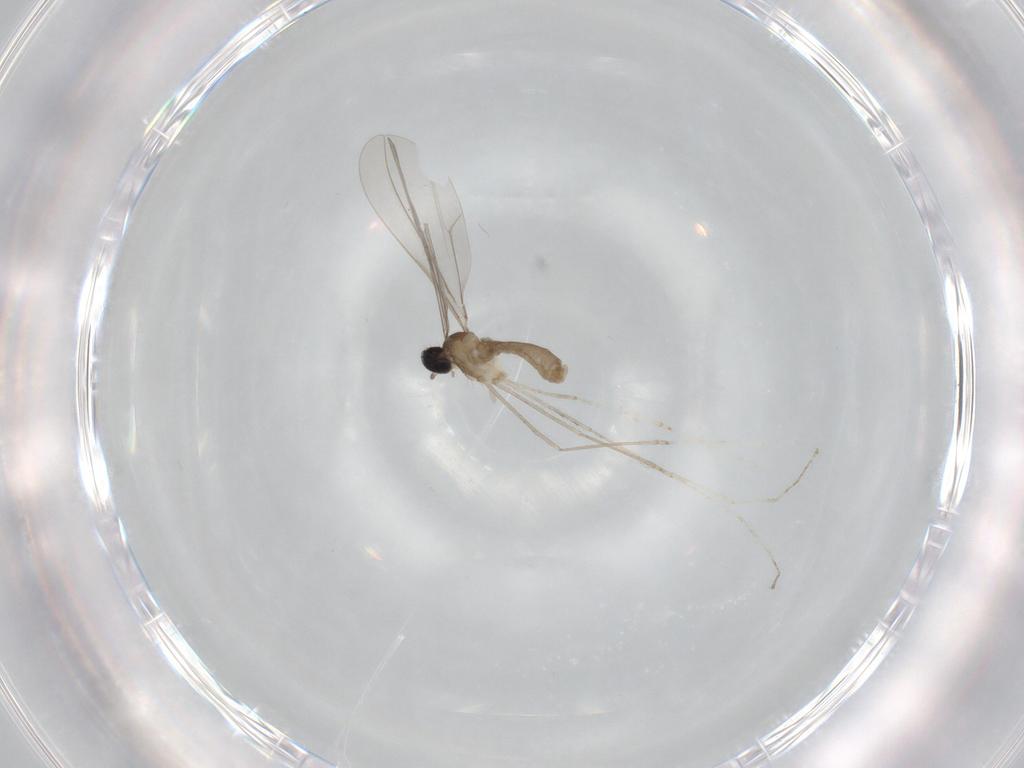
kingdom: Animalia
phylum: Arthropoda
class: Insecta
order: Diptera
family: Cecidomyiidae
